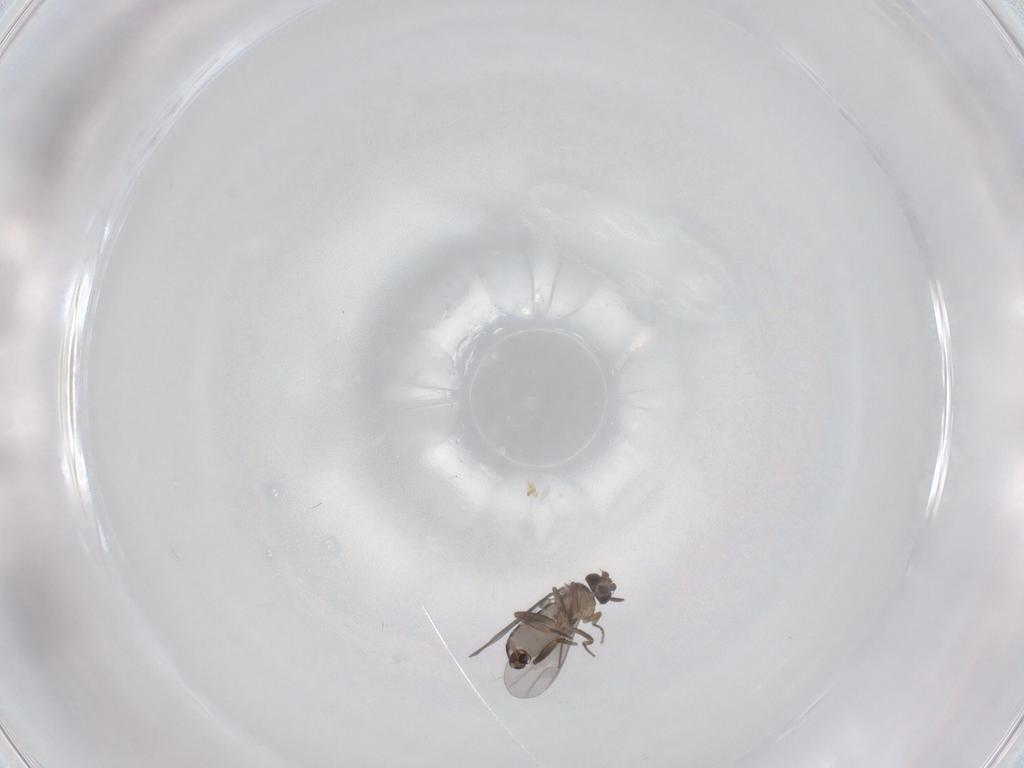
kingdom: Animalia
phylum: Arthropoda
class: Insecta
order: Diptera
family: Phoridae
